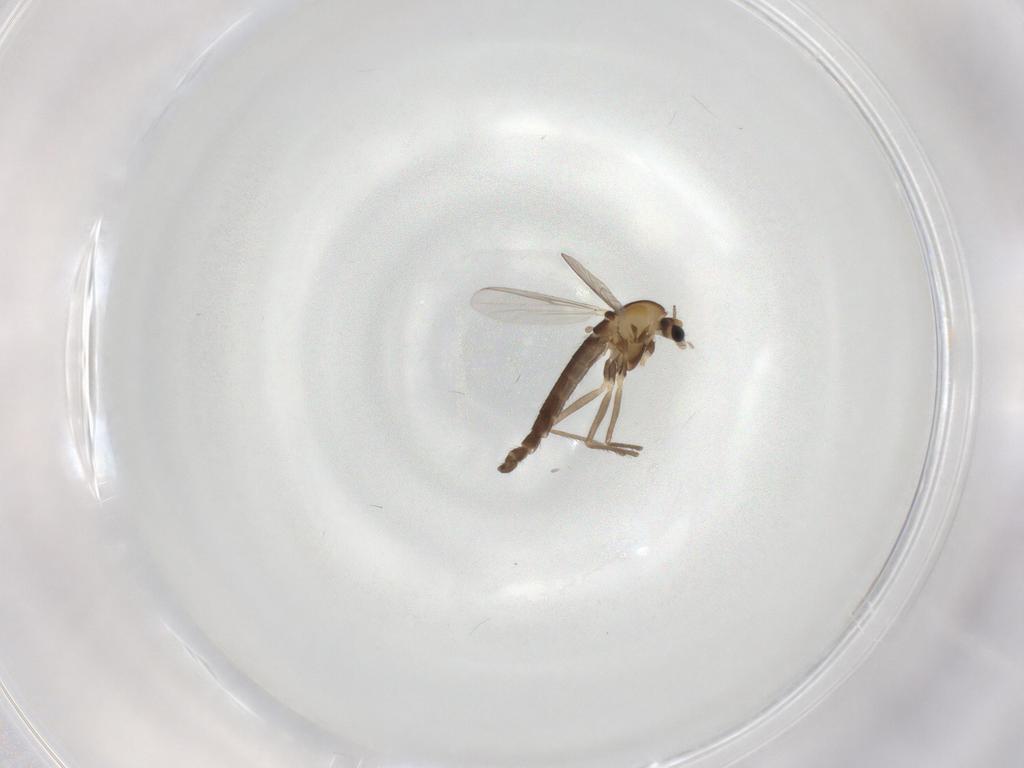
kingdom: Animalia
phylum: Arthropoda
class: Insecta
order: Diptera
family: Chironomidae
